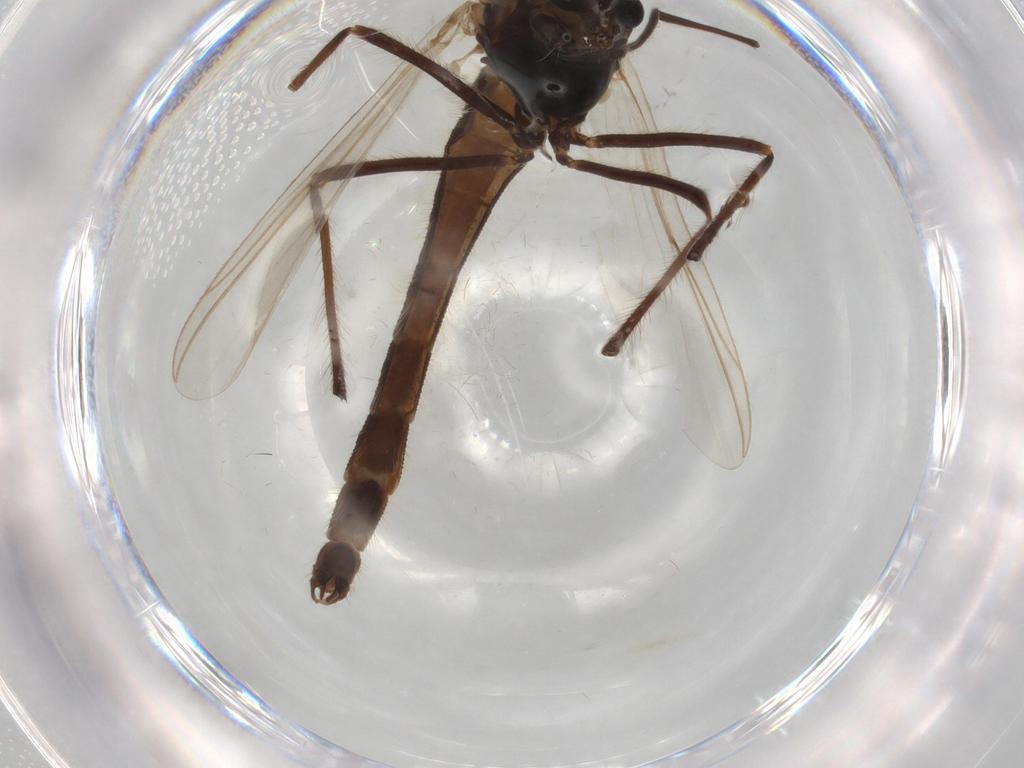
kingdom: Animalia
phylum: Arthropoda
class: Insecta
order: Diptera
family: Chironomidae
